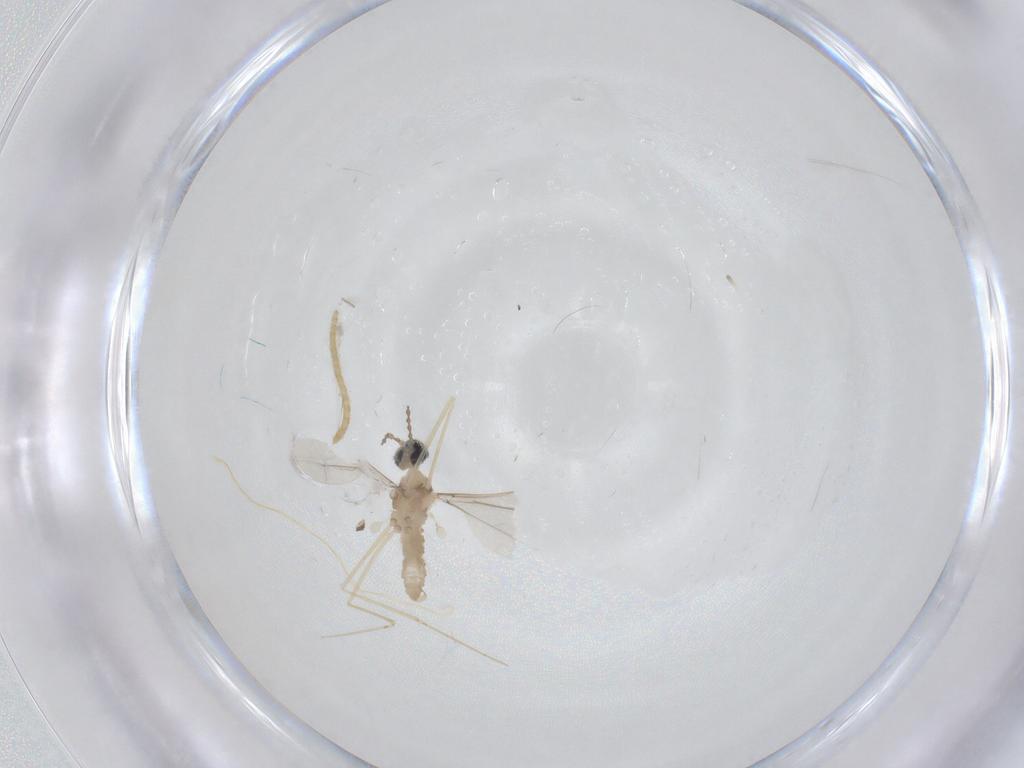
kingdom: Animalia
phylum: Arthropoda
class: Insecta
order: Diptera
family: Cecidomyiidae
